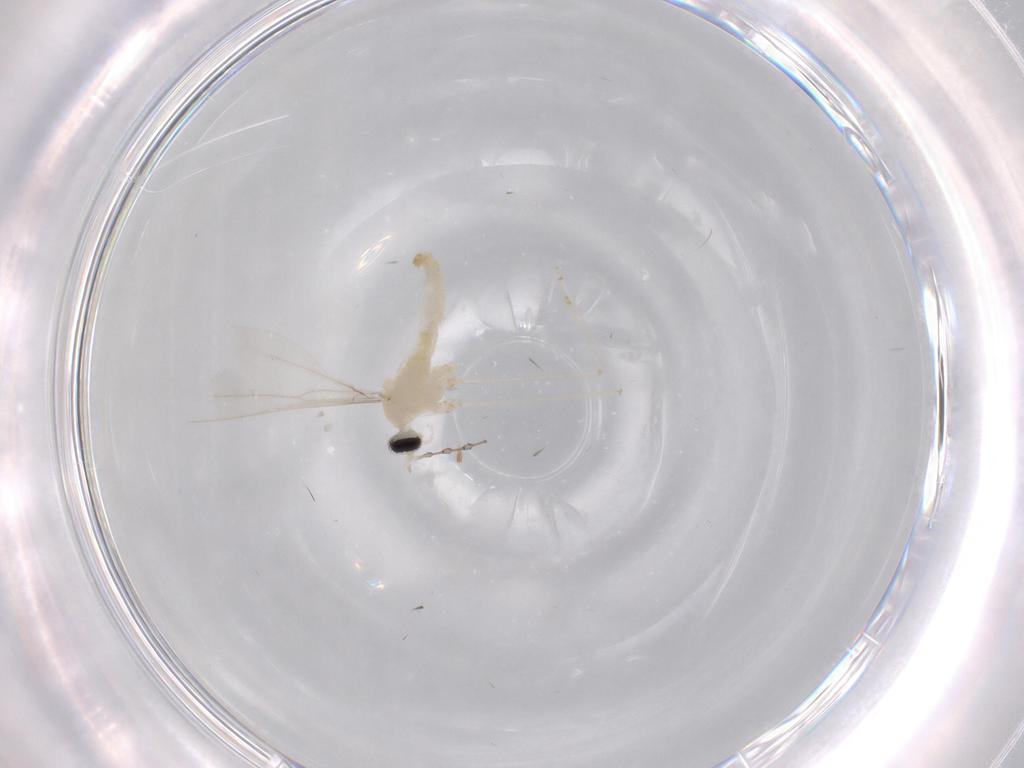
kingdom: Animalia
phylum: Arthropoda
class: Insecta
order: Diptera
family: Cecidomyiidae
